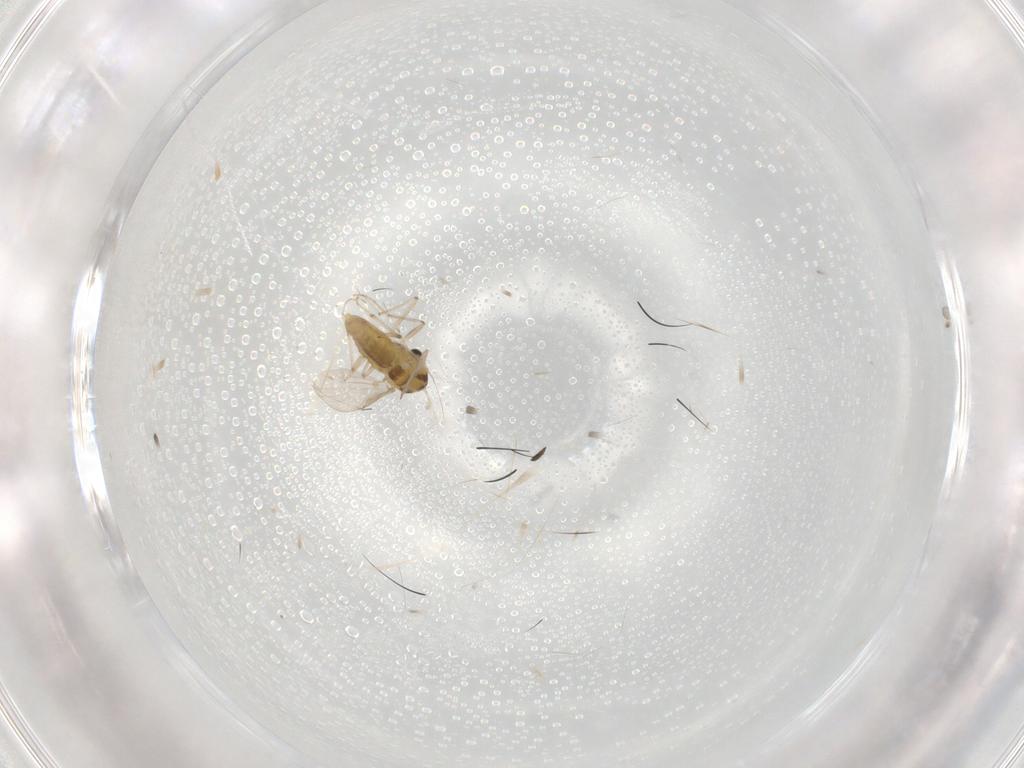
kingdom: Animalia
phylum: Arthropoda
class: Insecta
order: Diptera
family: Chironomidae
